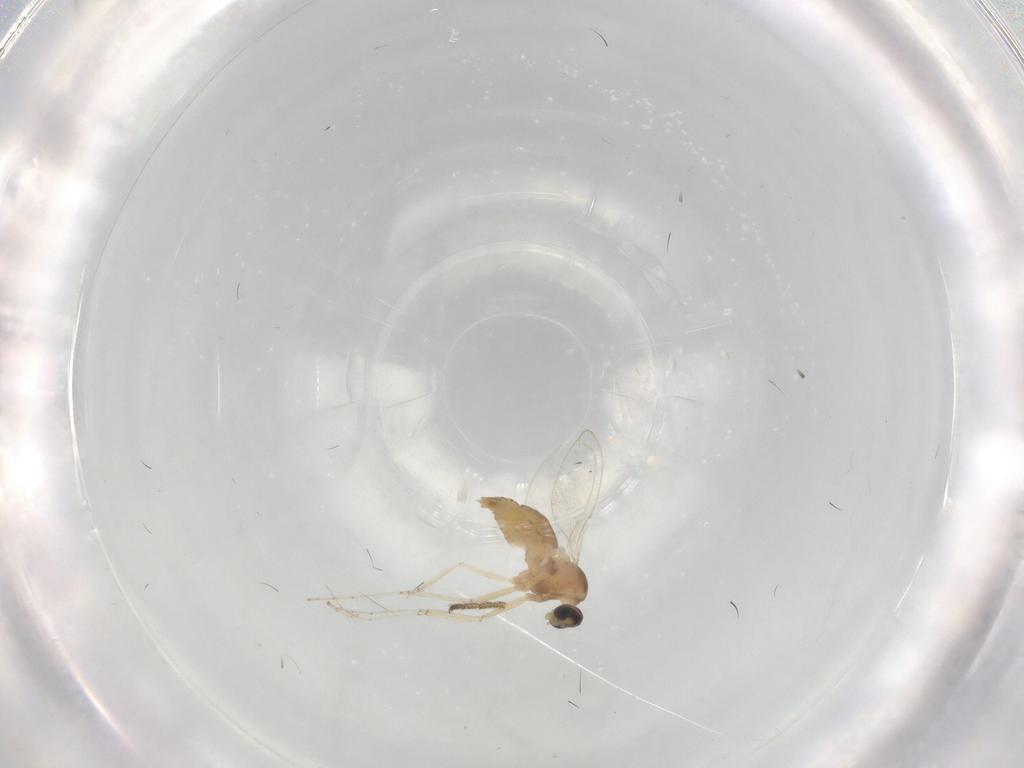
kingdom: Animalia
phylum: Arthropoda
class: Insecta
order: Diptera
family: Cecidomyiidae
